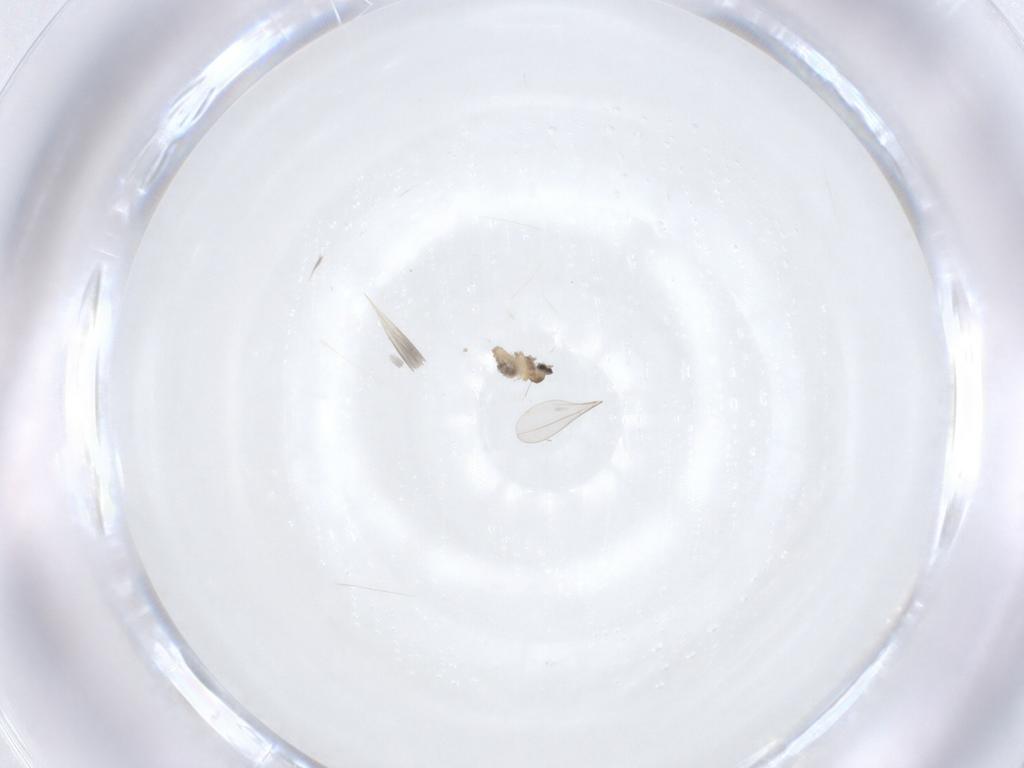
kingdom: Animalia
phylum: Arthropoda
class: Insecta
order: Diptera
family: Cecidomyiidae
